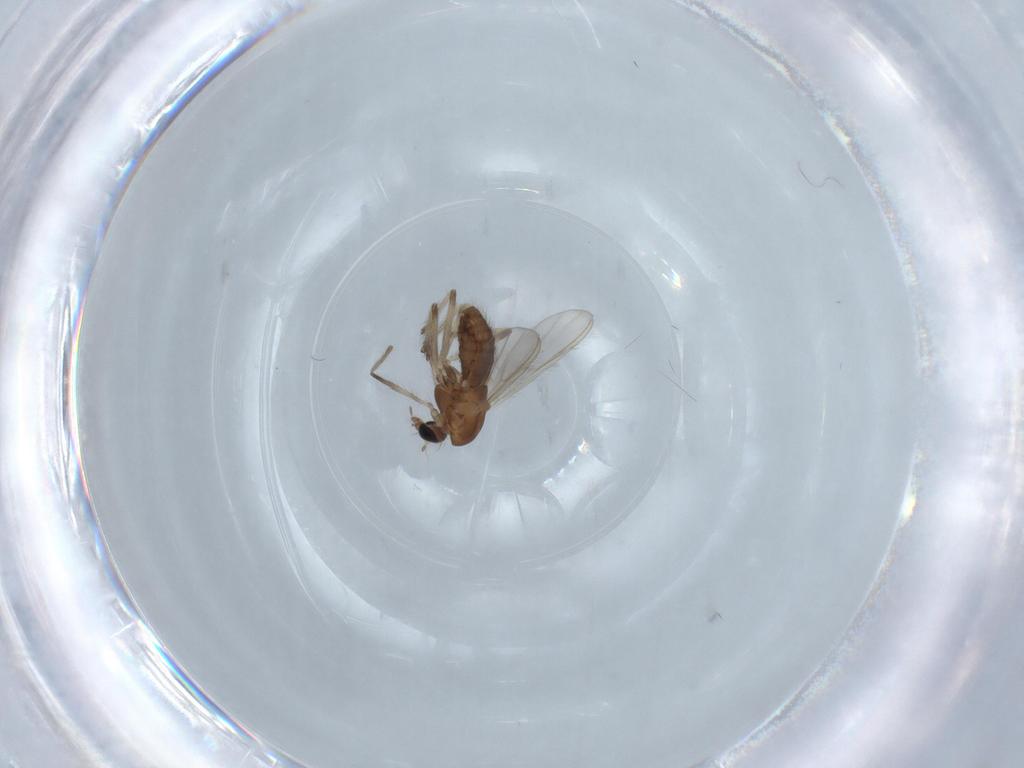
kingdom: Animalia
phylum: Arthropoda
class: Insecta
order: Diptera
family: Chironomidae
